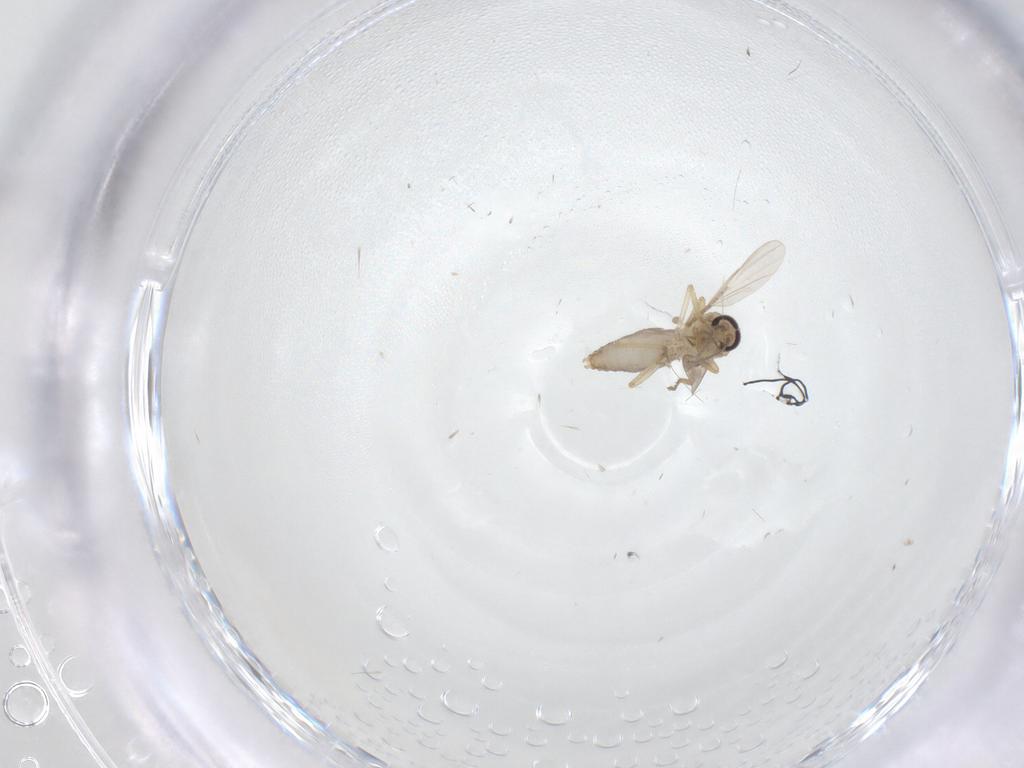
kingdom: Animalia
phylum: Arthropoda
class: Insecta
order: Diptera
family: Ceratopogonidae
